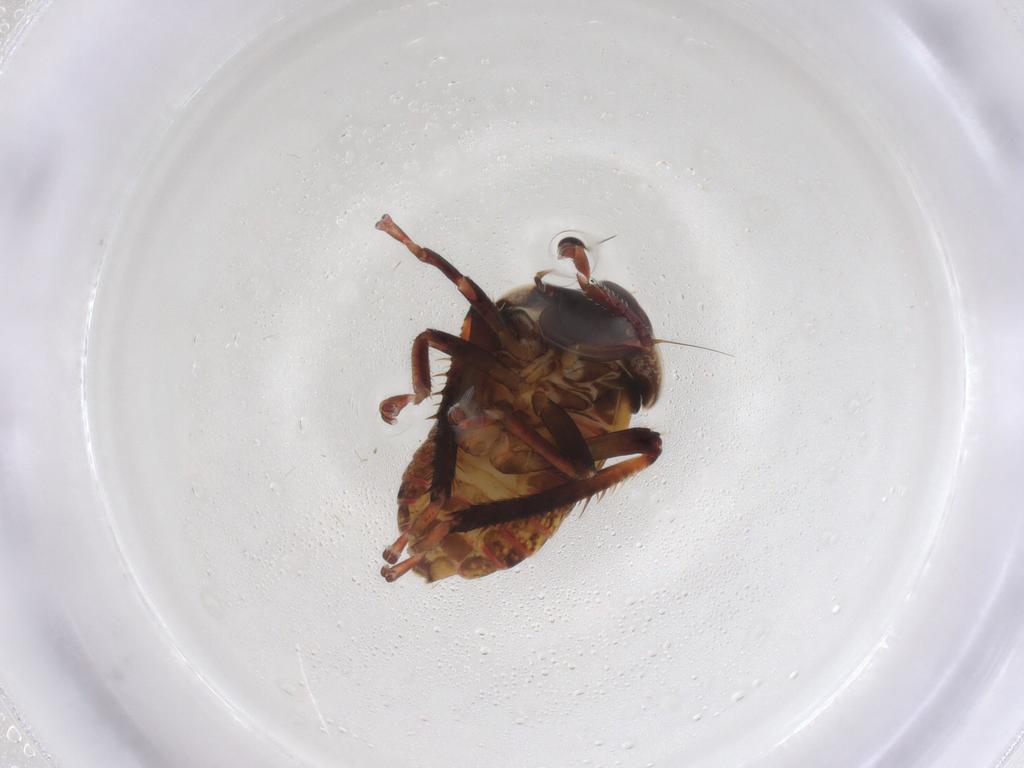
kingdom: Animalia
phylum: Arthropoda
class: Insecta
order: Hemiptera
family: Cicadellidae
